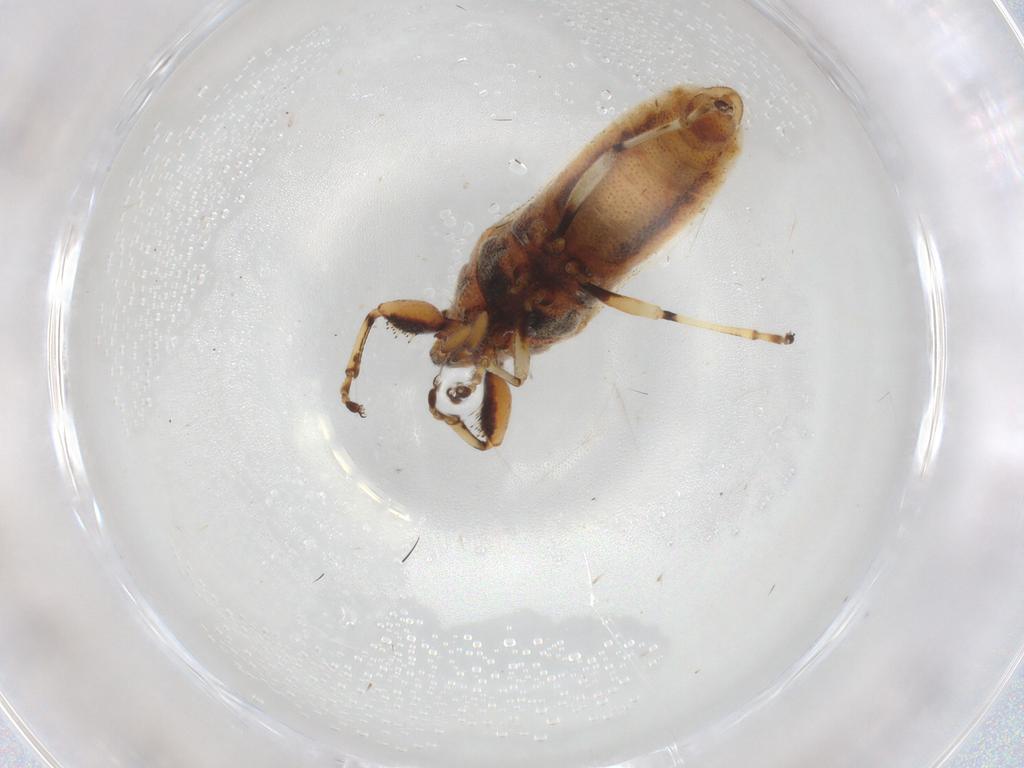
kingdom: Animalia
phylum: Arthropoda
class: Insecta
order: Hemiptera
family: Pachygronthidae
